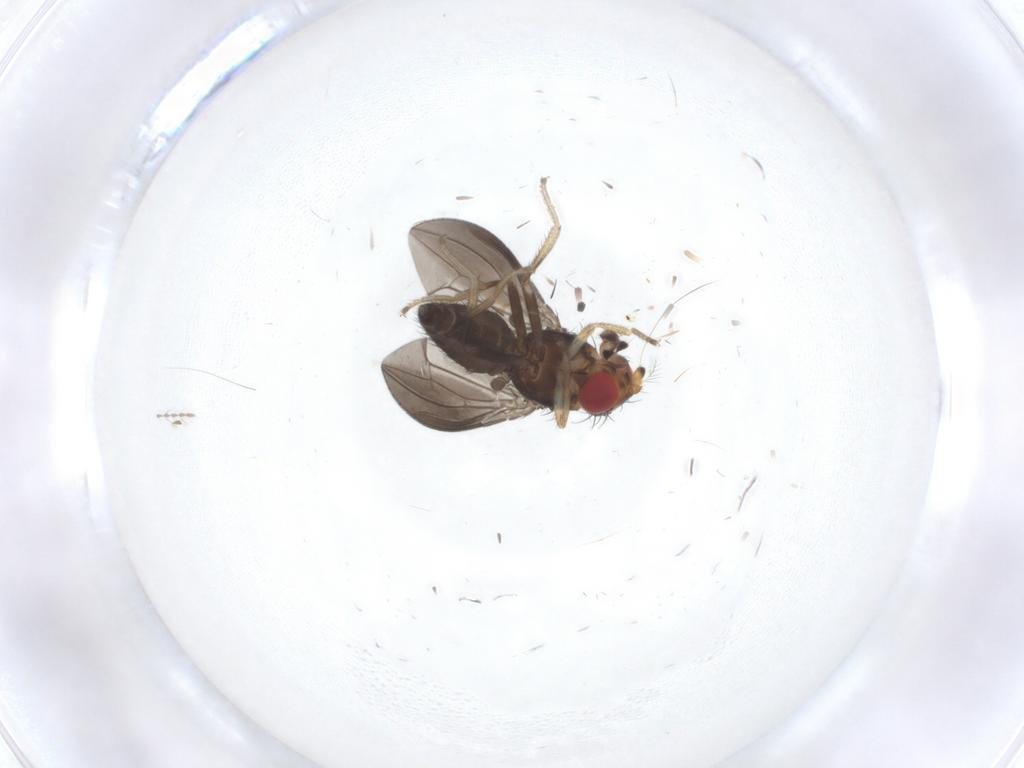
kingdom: Animalia
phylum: Arthropoda
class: Insecta
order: Diptera
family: Drosophilidae
